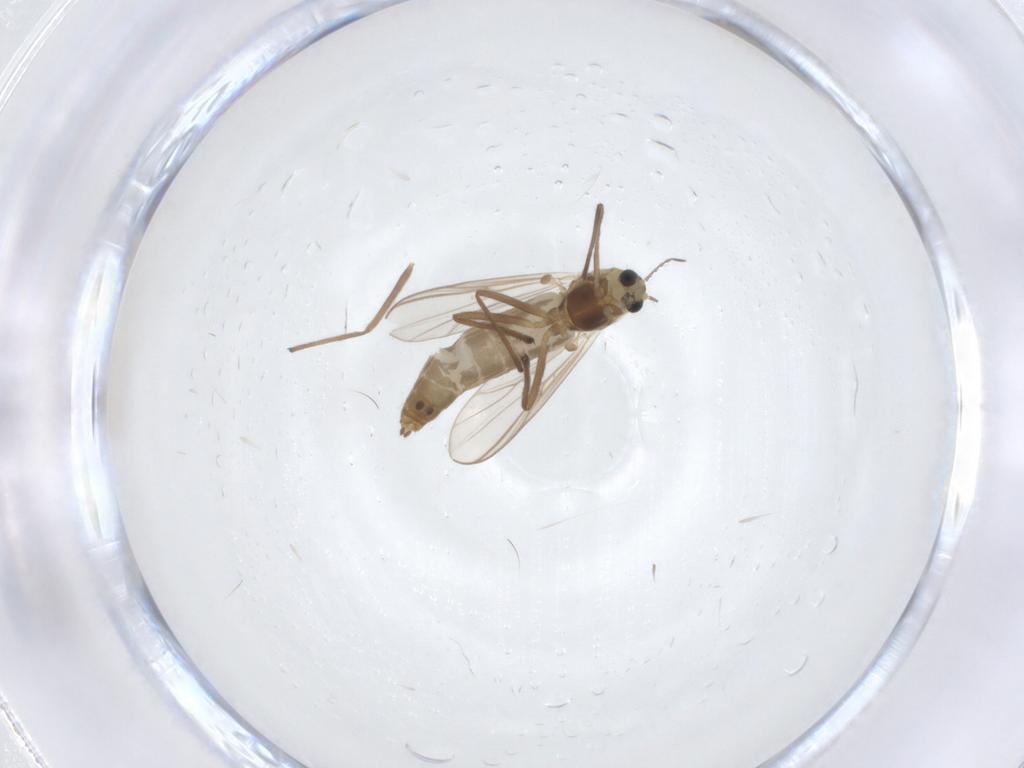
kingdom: Animalia
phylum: Arthropoda
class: Insecta
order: Diptera
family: Chironomidae
